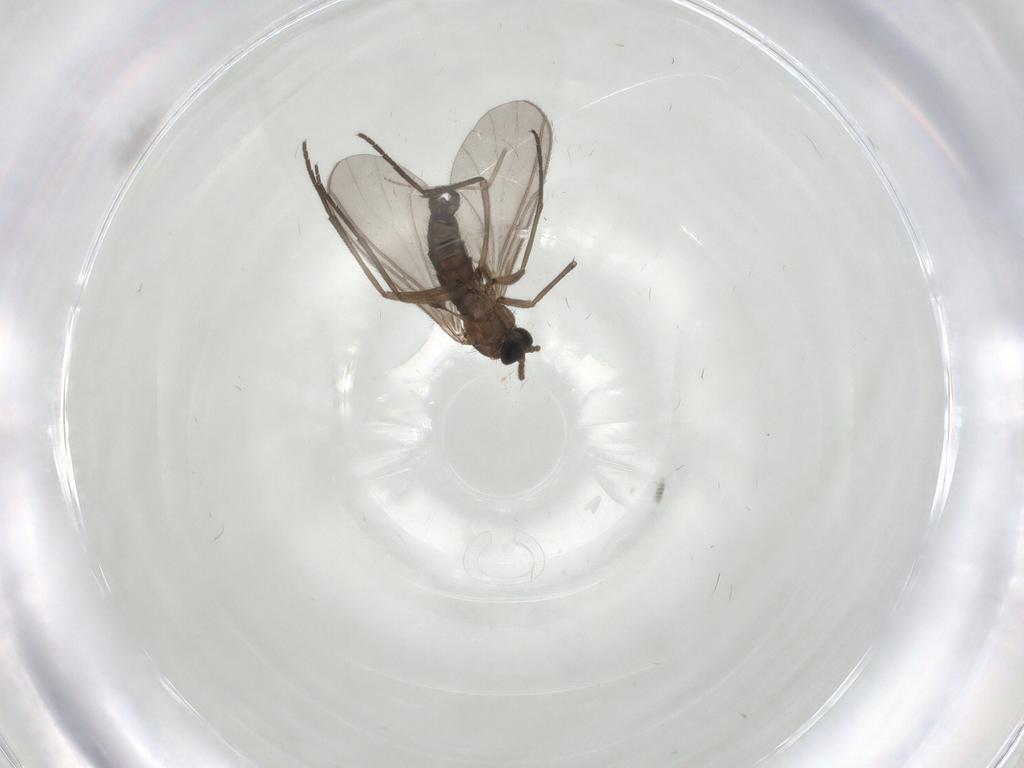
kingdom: Animalia
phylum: Arthropoda
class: Insecta
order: Diptera
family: Sciaridae
